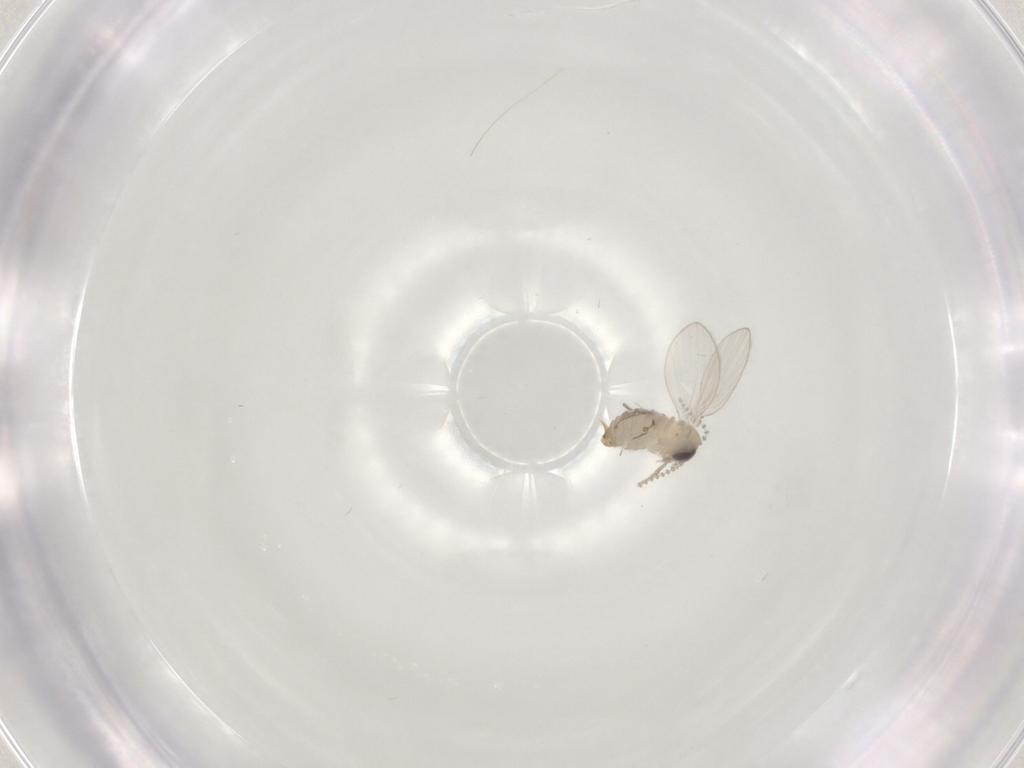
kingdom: Animalia
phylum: Arthropoda
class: Insecta
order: Diptera
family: Psychodidae
